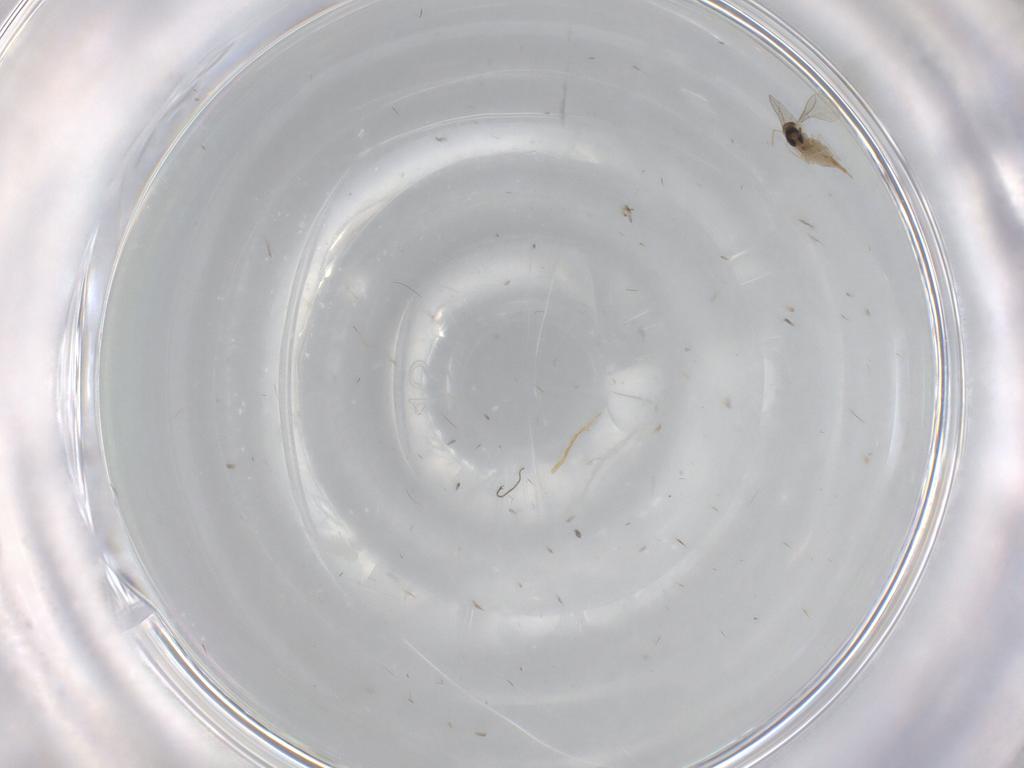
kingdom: Animalia
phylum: Arthropoda
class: Insecta
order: Diptera
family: Cecidomyiidae
